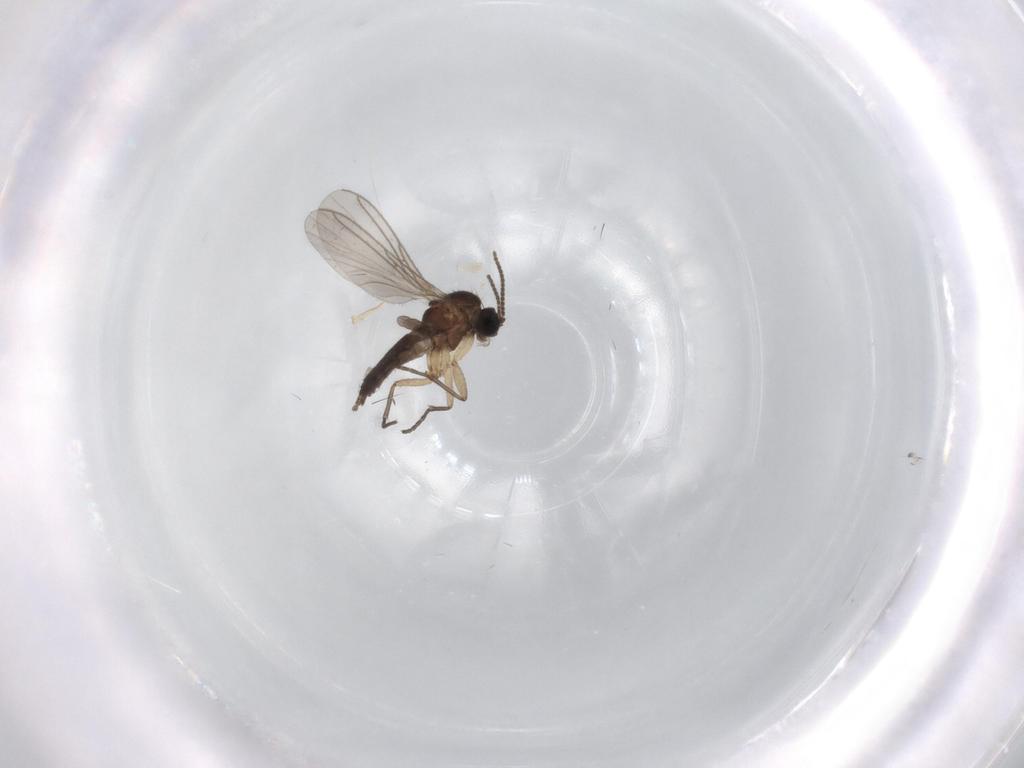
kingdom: Animalia
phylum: Arthropoda
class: Insecta
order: Diptera
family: Sciaridae
